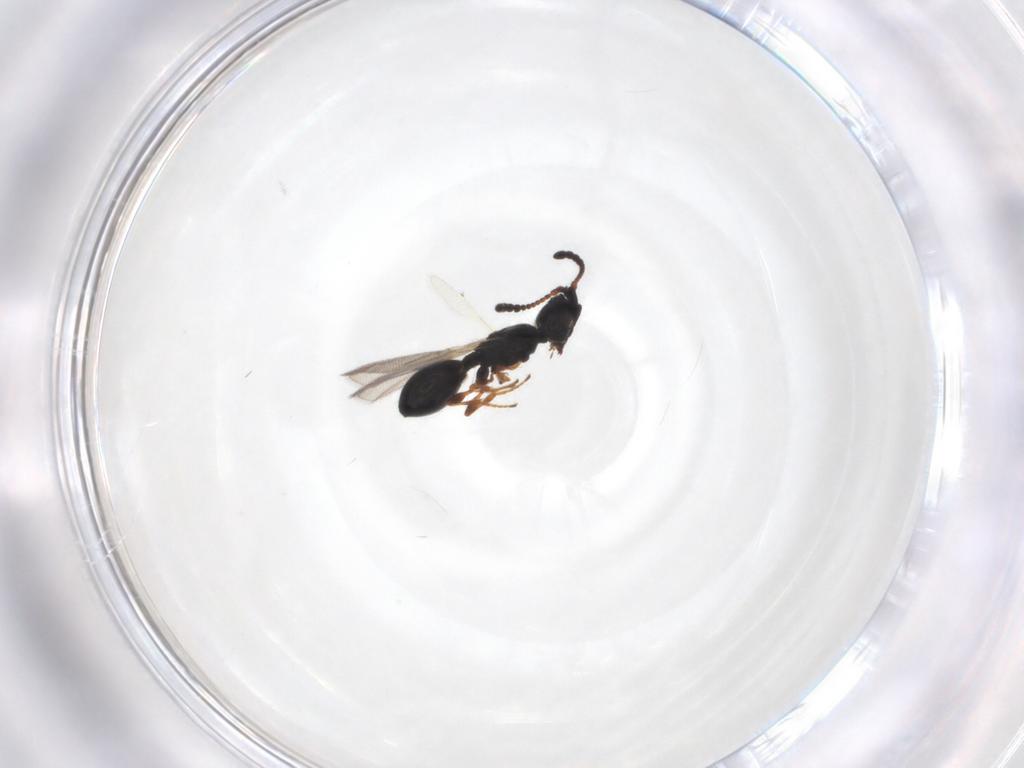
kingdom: Animalia
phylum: Arthropoda
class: Insecta
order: Hymenoptera
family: Diapriidae
